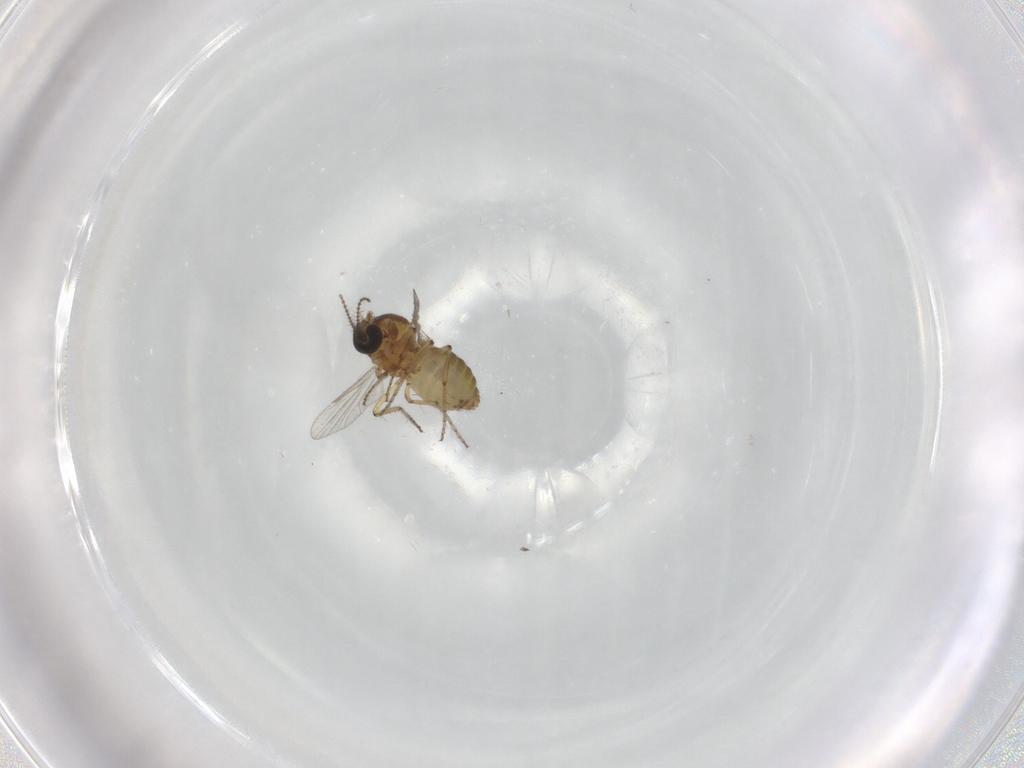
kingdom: Animalia
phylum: Arthropoda
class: Insecta
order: Diptera
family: Ceratopogonidae
